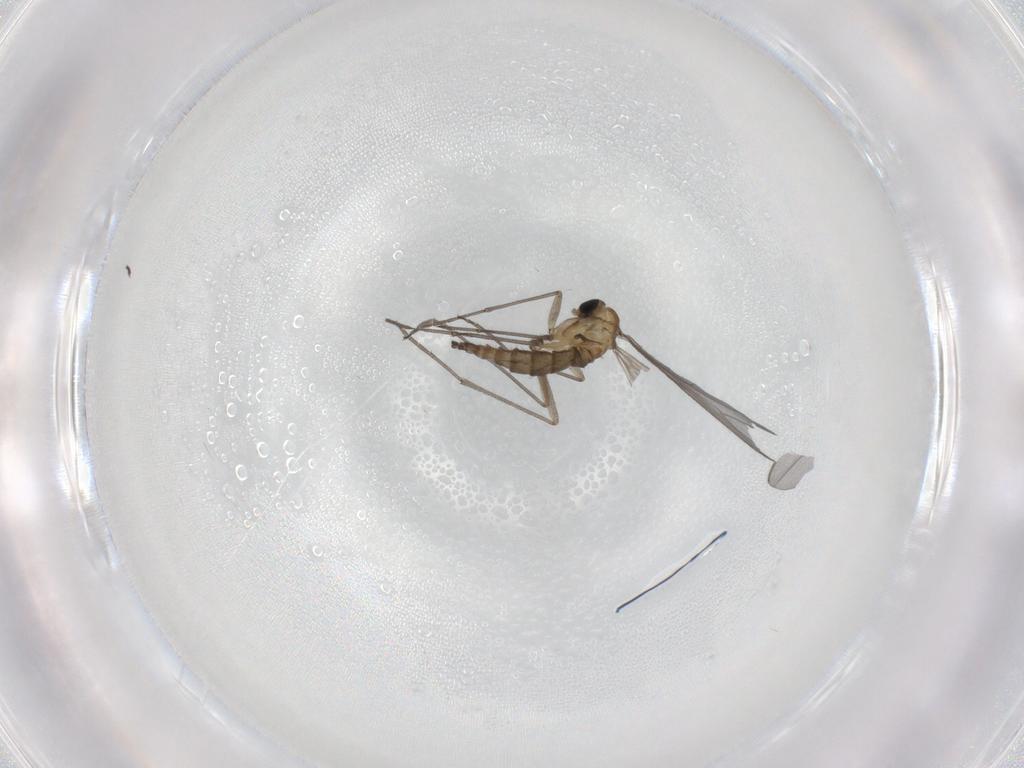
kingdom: Animalia
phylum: Arthropoda
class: Insecta
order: Diptera
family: Sciaridae
